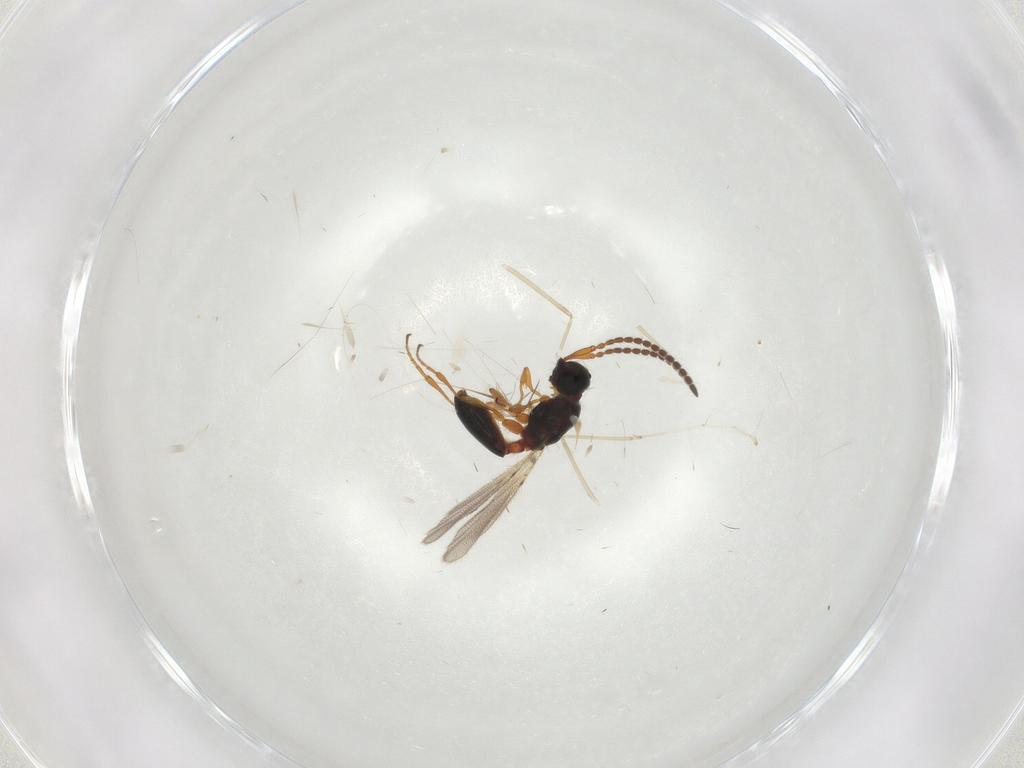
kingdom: Animalia
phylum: Arthropoda
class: Insecta
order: Hymenoptera
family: Diapriidae
